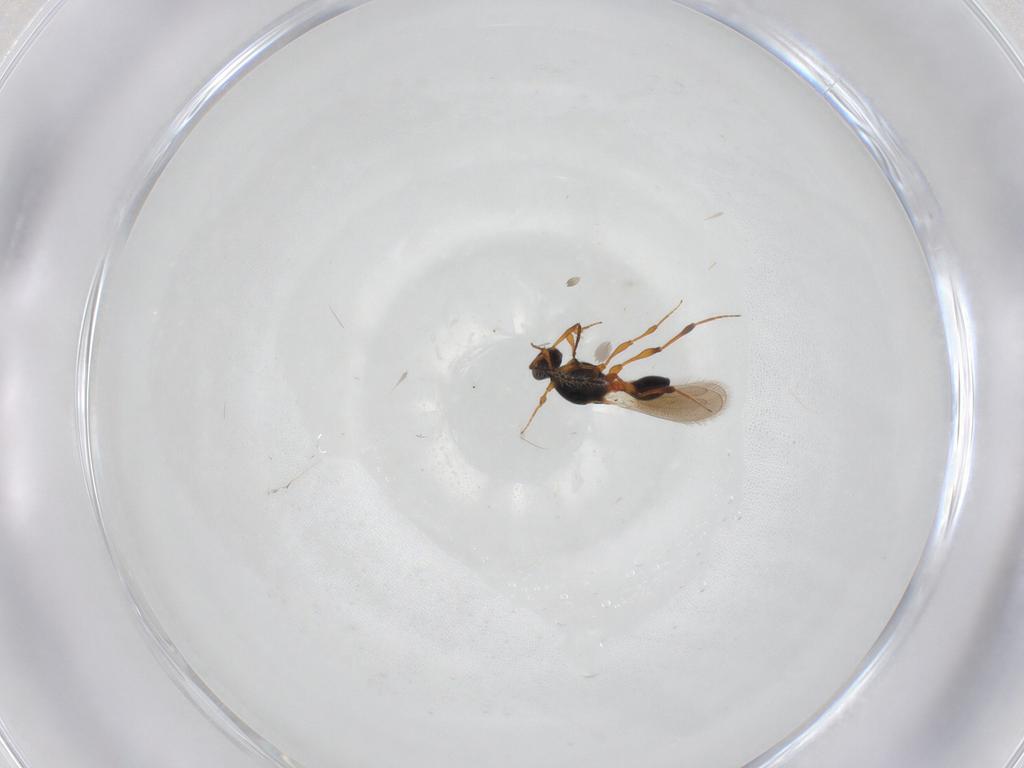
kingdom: Animalia
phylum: Arthropoda
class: Insecta
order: Hymenoptera
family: Platygastridae
